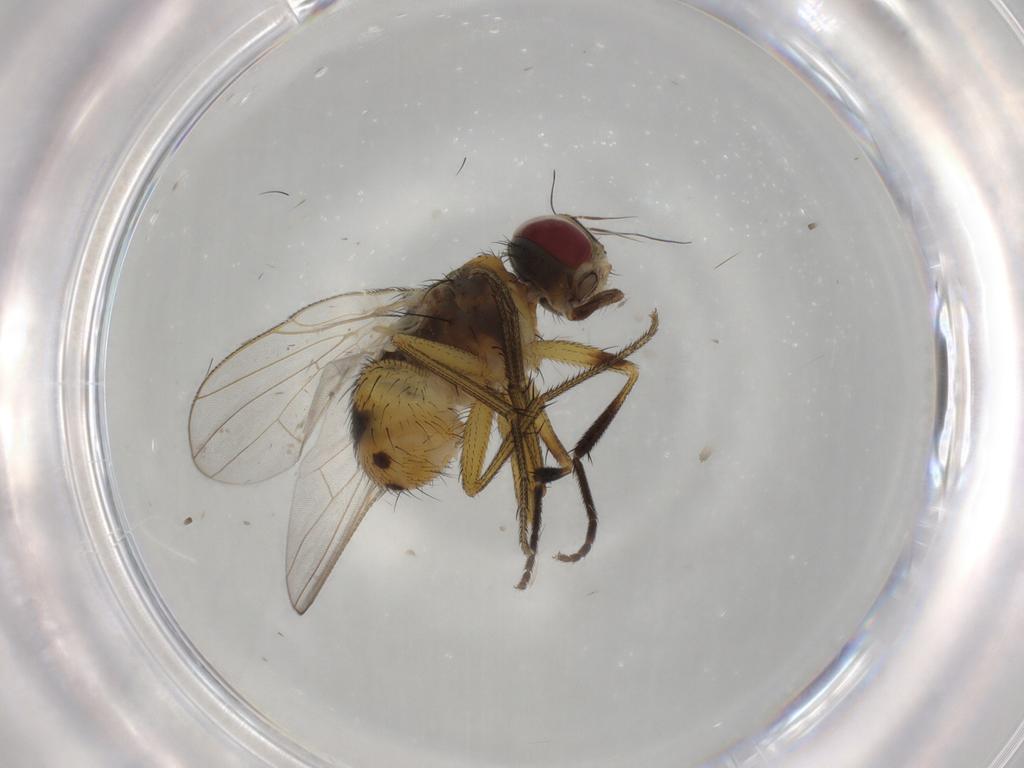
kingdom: Animalia
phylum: Arthropoda
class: Insecta
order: Diptera
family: Muscidae
